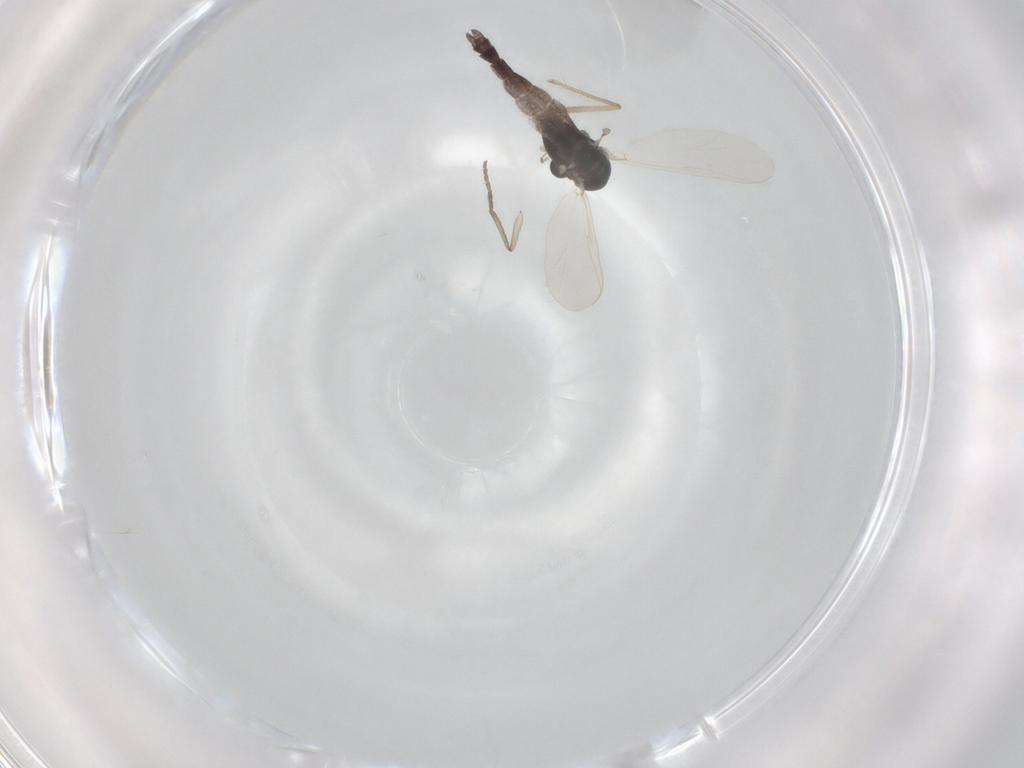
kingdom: Animalia
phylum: Arthropoda
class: Insecta
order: Diptera
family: Chironomidae
